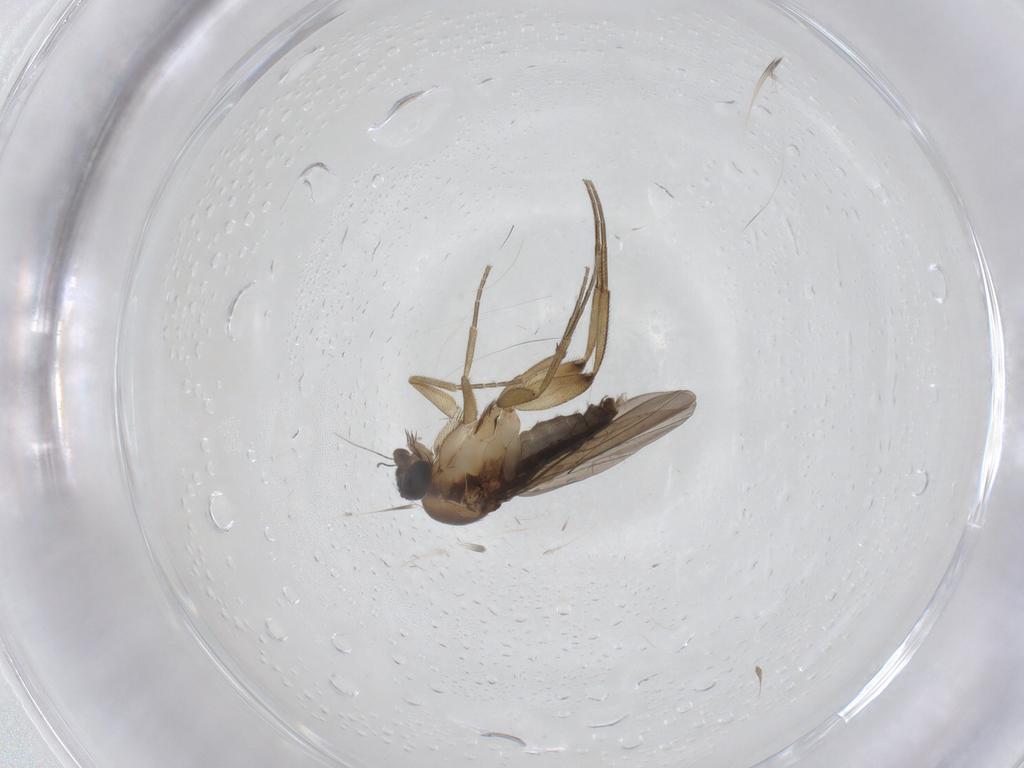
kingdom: Animalia
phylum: Arthropoda
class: Insecta
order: Diptera
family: Phoridae
